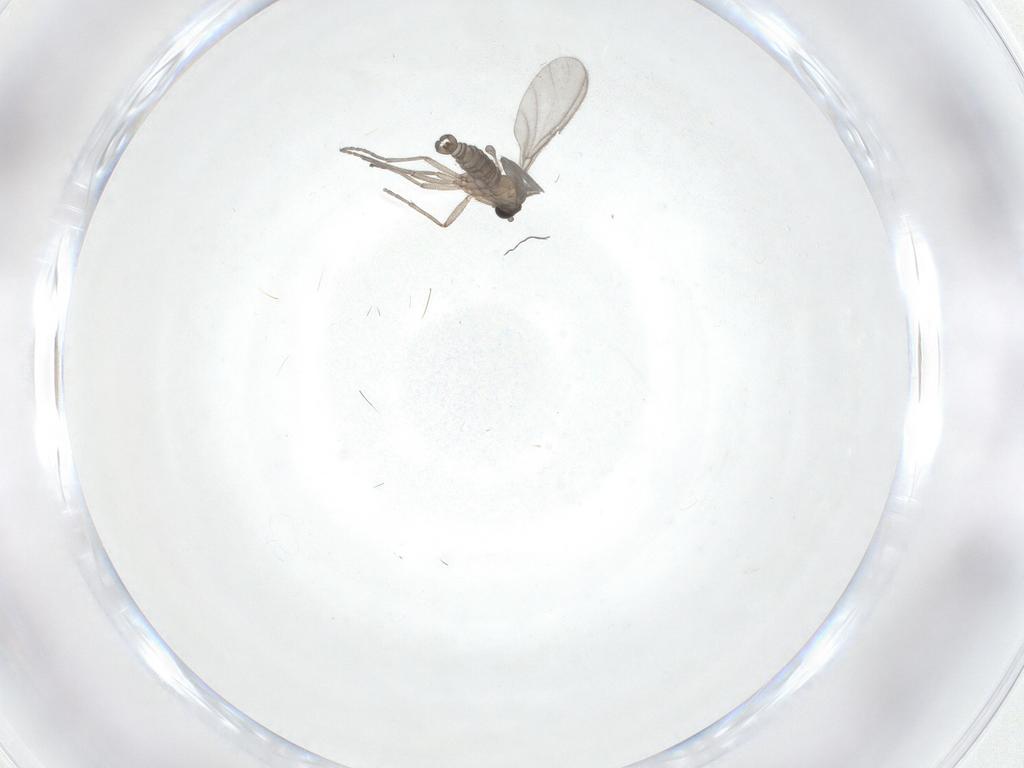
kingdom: Animalia
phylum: Arthropoda
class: Insecta
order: Diptera
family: Sciaridae
